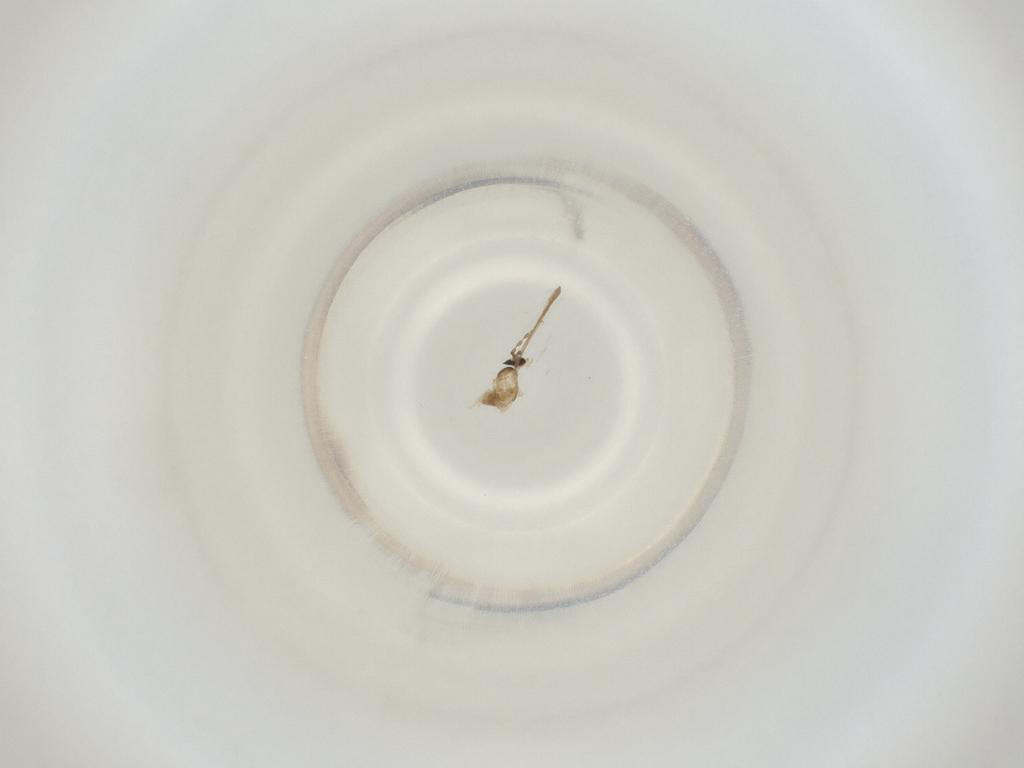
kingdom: Animalia
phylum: Arthropoda
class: Insecta
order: Diptera
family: Cecidomyiidae
